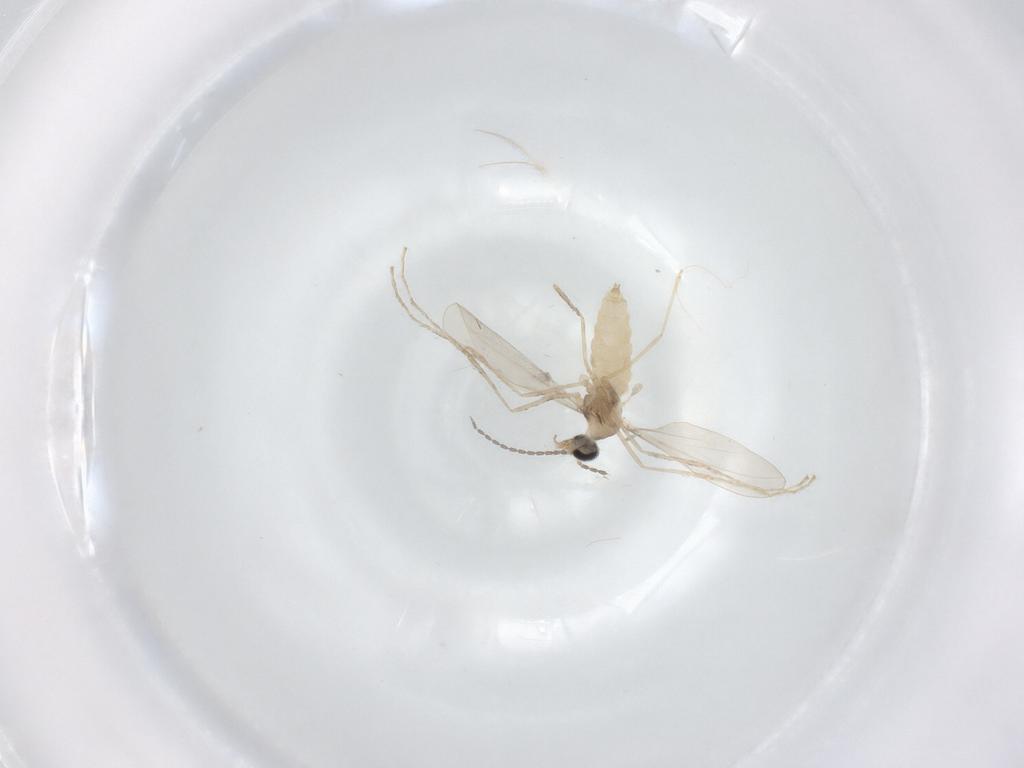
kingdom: Animalia
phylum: Arthropoda
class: Insecta
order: Diptera
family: Cecidomyiidae
